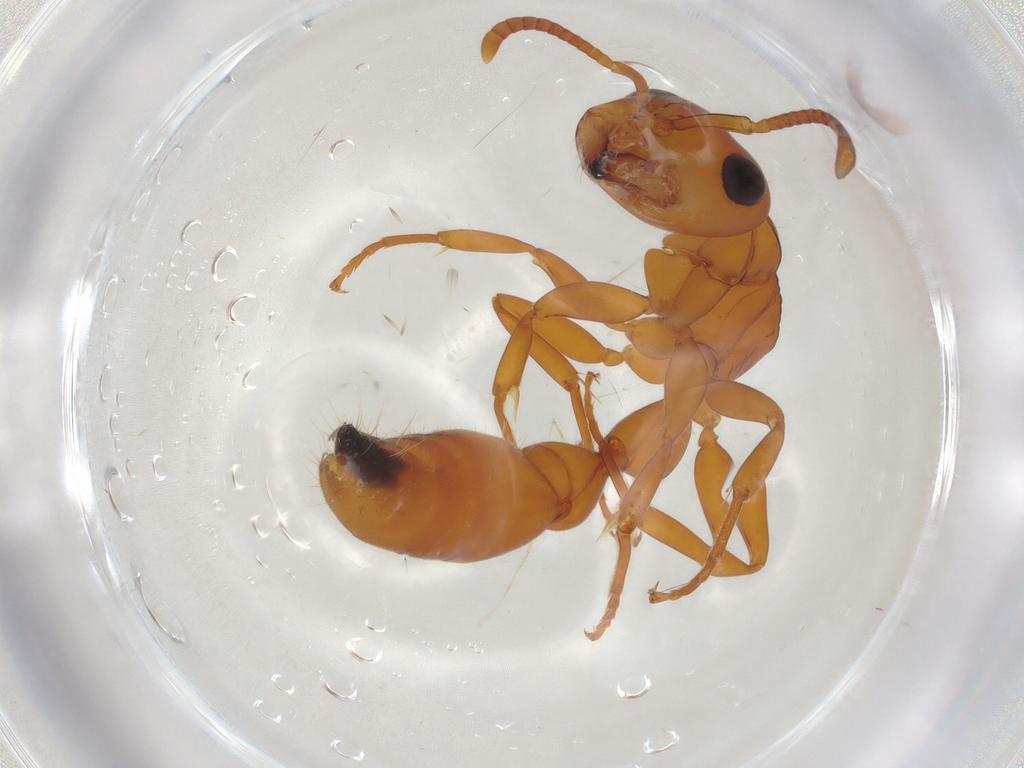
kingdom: Animalia
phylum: Arthropoda
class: Insecta
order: Hymenoptera
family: Formicidae
